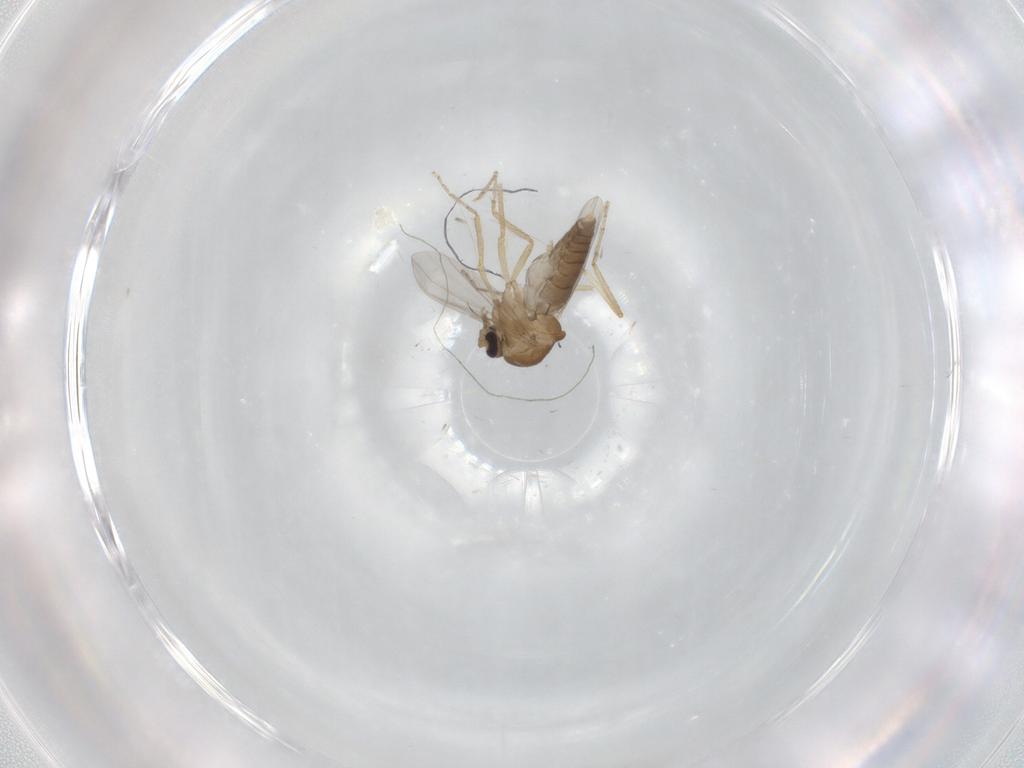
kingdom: Animalia
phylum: Arthropoda
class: Insecta
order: Diptera
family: Ceratopogonidae
